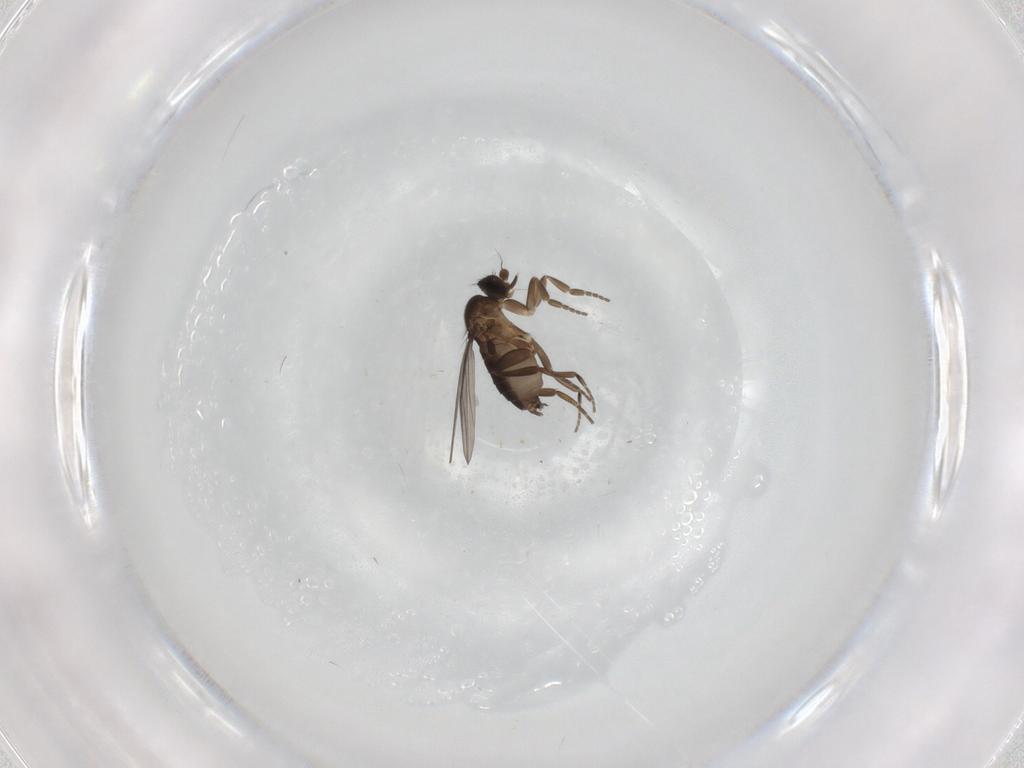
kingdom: Animalia
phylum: Arthropoda
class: Insecta
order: Diptera
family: Phoridae
